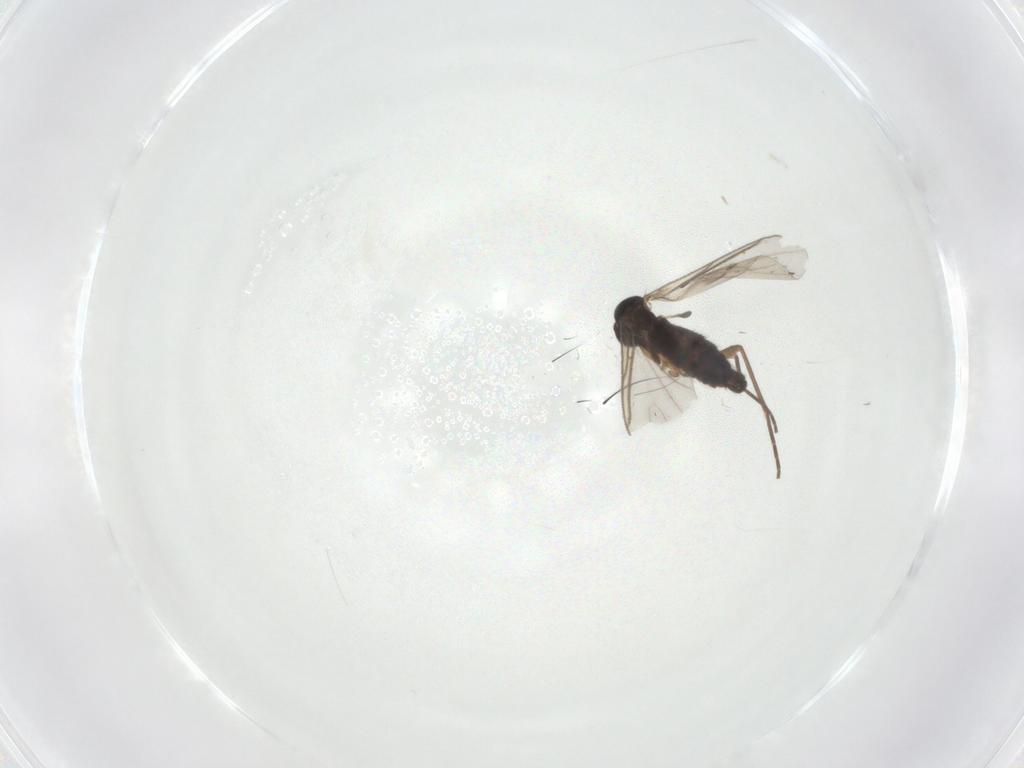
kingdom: Animalia
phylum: Arthropoda
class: Insecta
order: Diptera
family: Sciaridae
